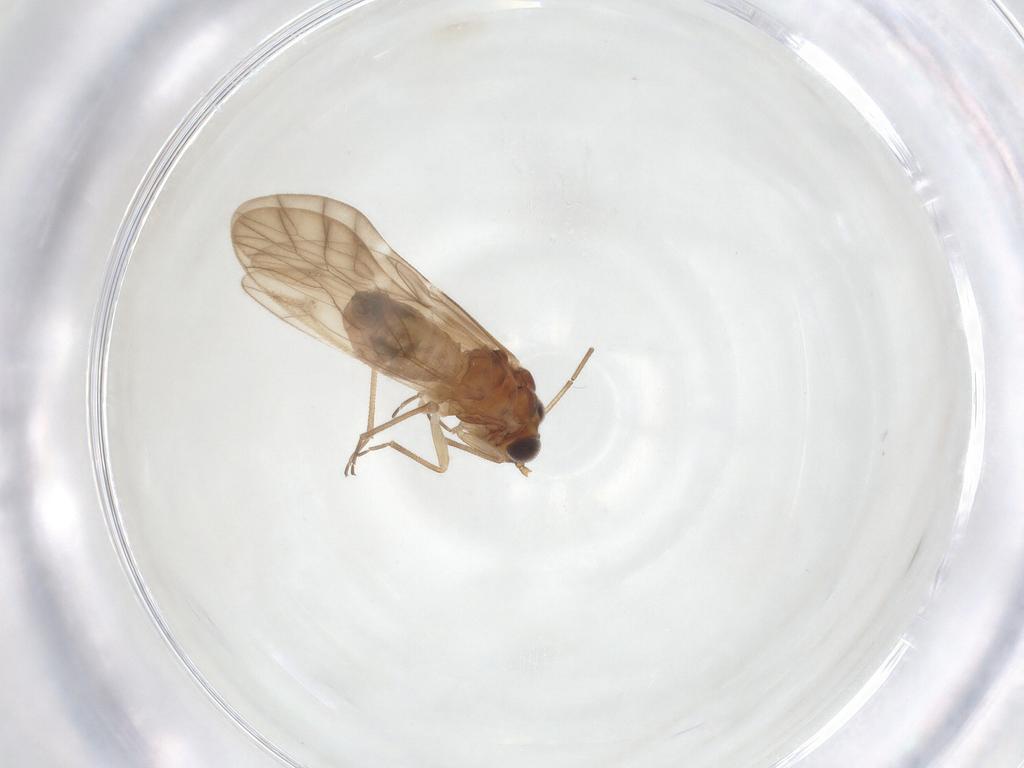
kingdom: Animalia
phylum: Arthropoda
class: Insecta
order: Psocodea
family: Caeciliusidae
